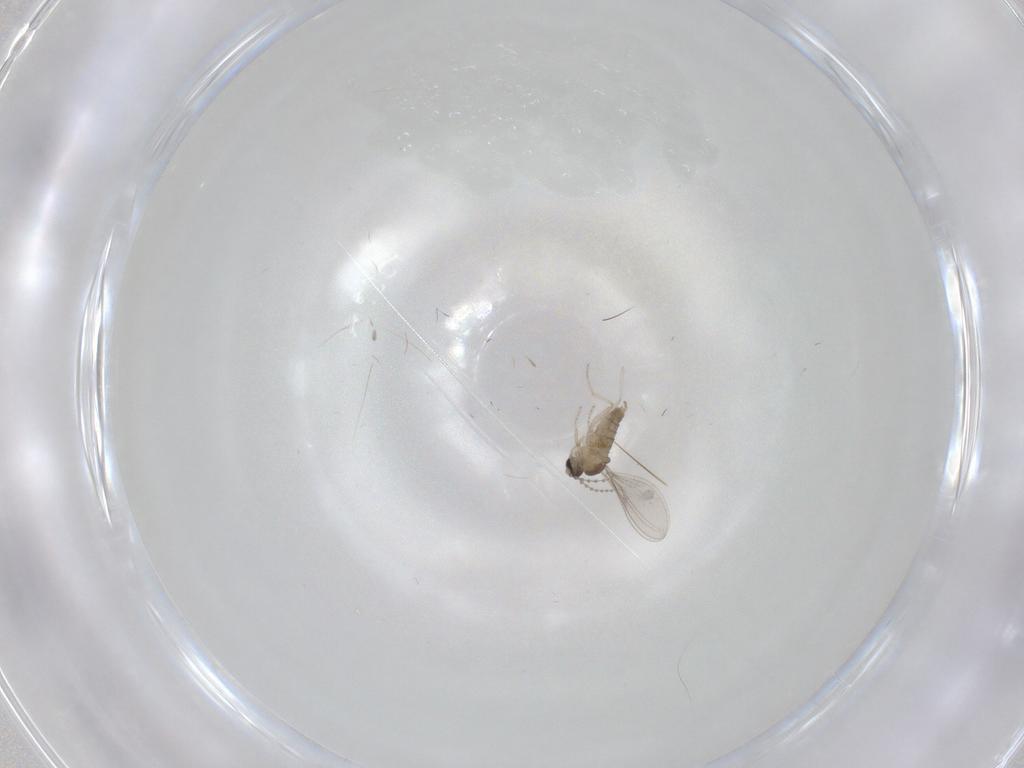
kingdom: Animalia
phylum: Arthropoda
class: Insecta
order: Diptera
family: Cecidomyiidae
